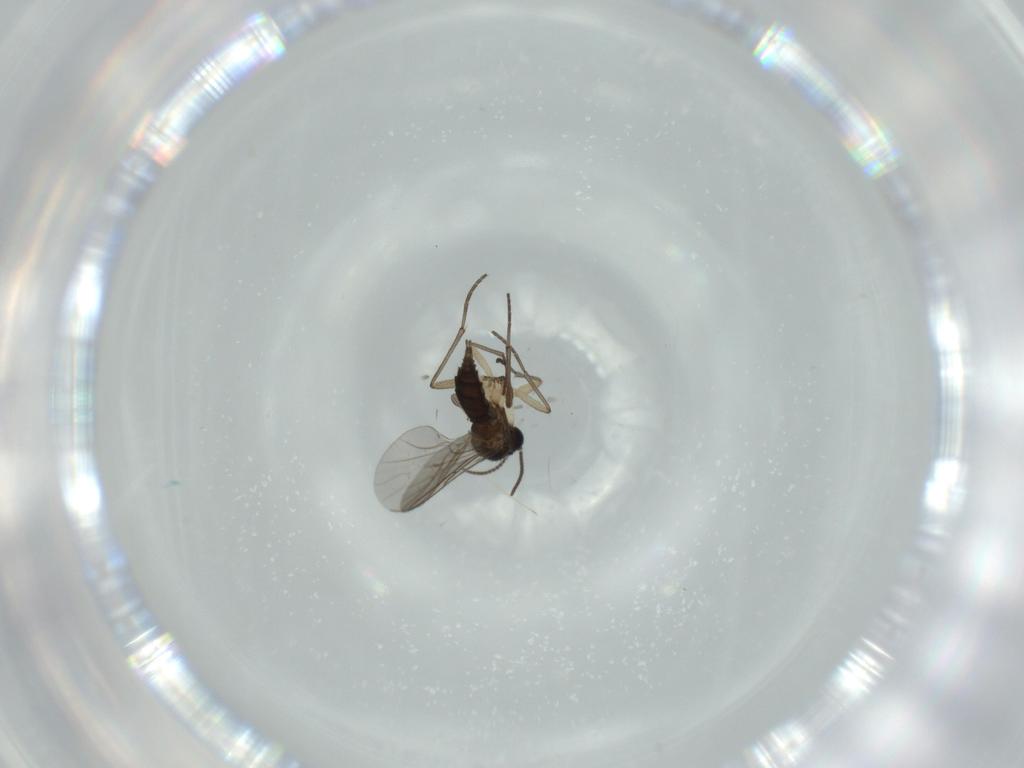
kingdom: Animalia
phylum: Arthropoda
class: Insecta
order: Diptera
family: Sciaridae
